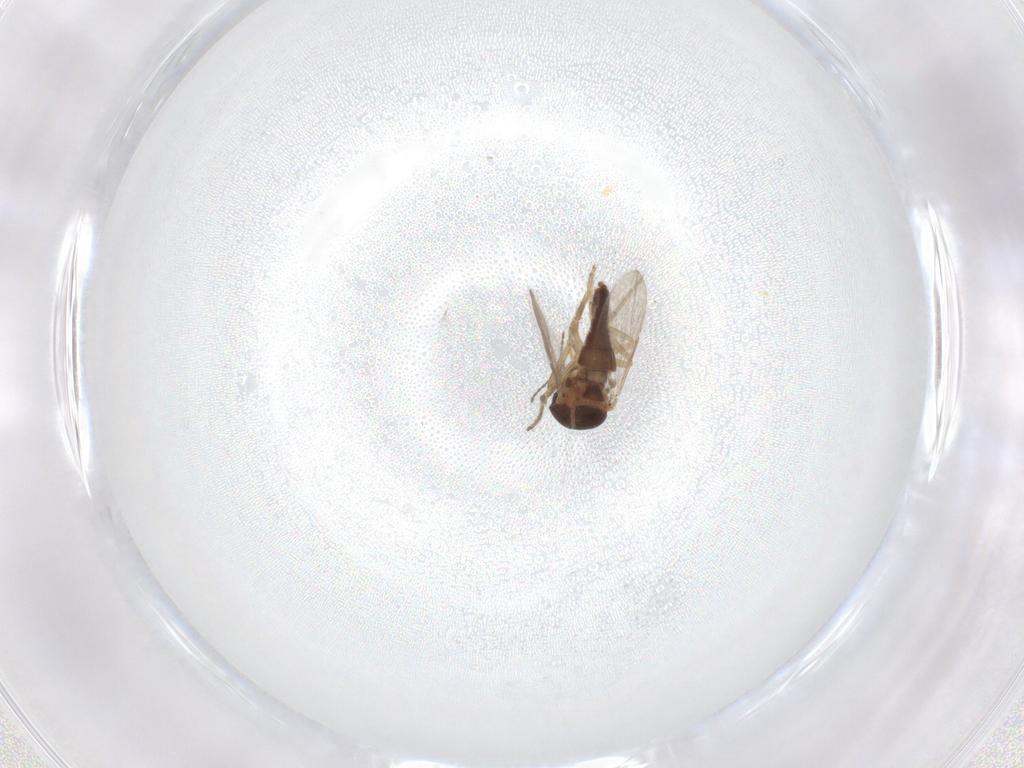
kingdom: Animalia
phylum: Arthropoda
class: Insecta
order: Diptera
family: Ceratopogonidae
